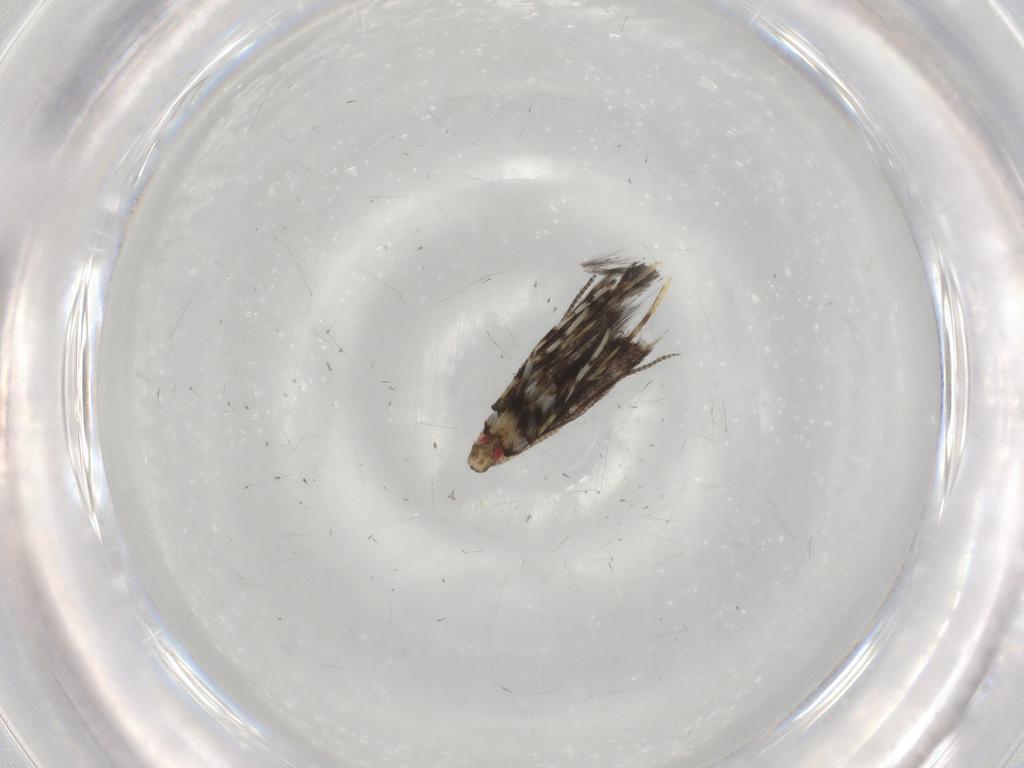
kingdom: Animalia
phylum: Arthropoda
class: Insecta
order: Lepidoptera
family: Gracillariidae
